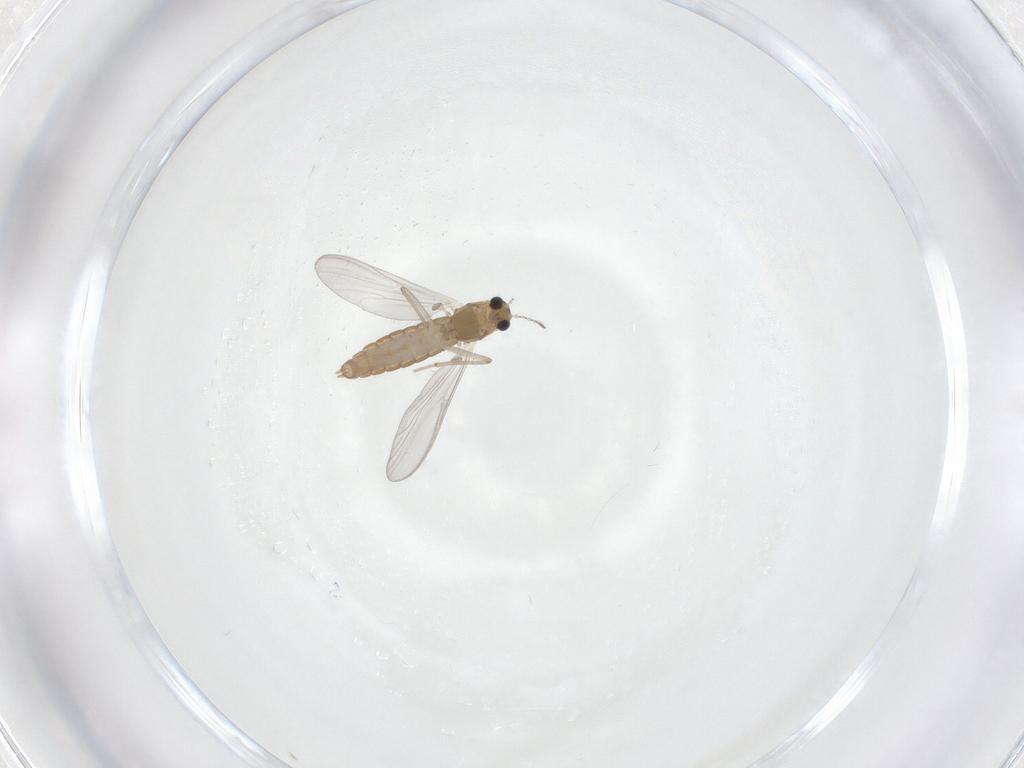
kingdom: Animalia
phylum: Arthropoda
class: Insecta
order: Diptera
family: Chironomidae
